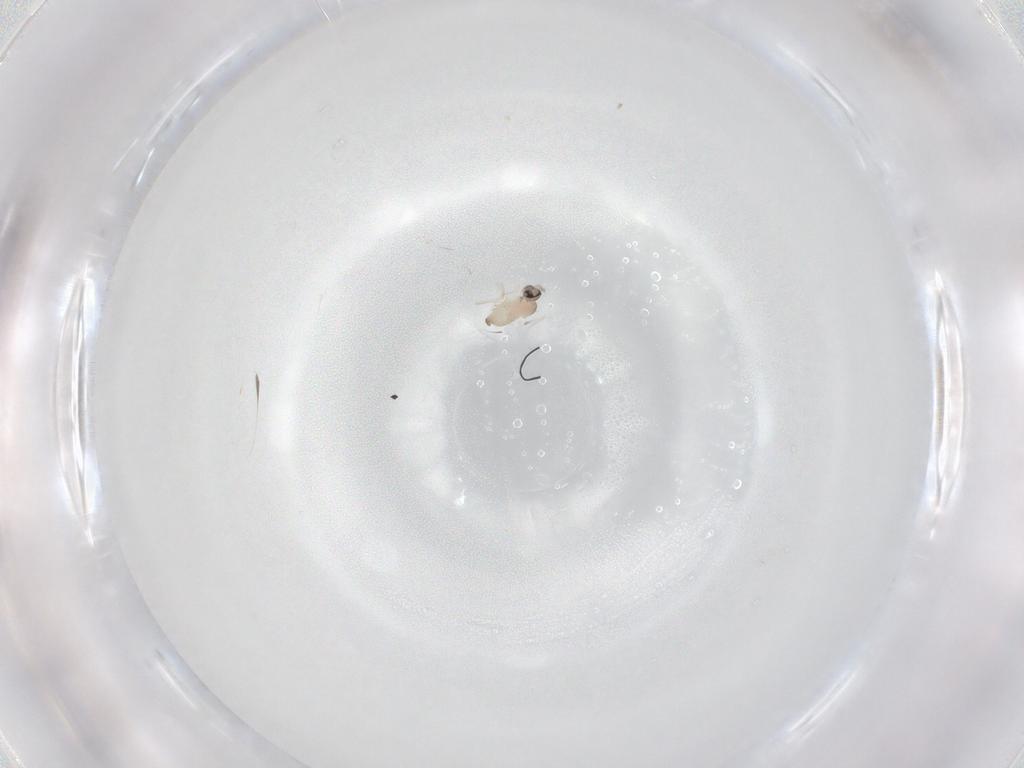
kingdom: Animalia
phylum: Arthropoda
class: Insecta
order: Diptera
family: Cecidomyiidae
